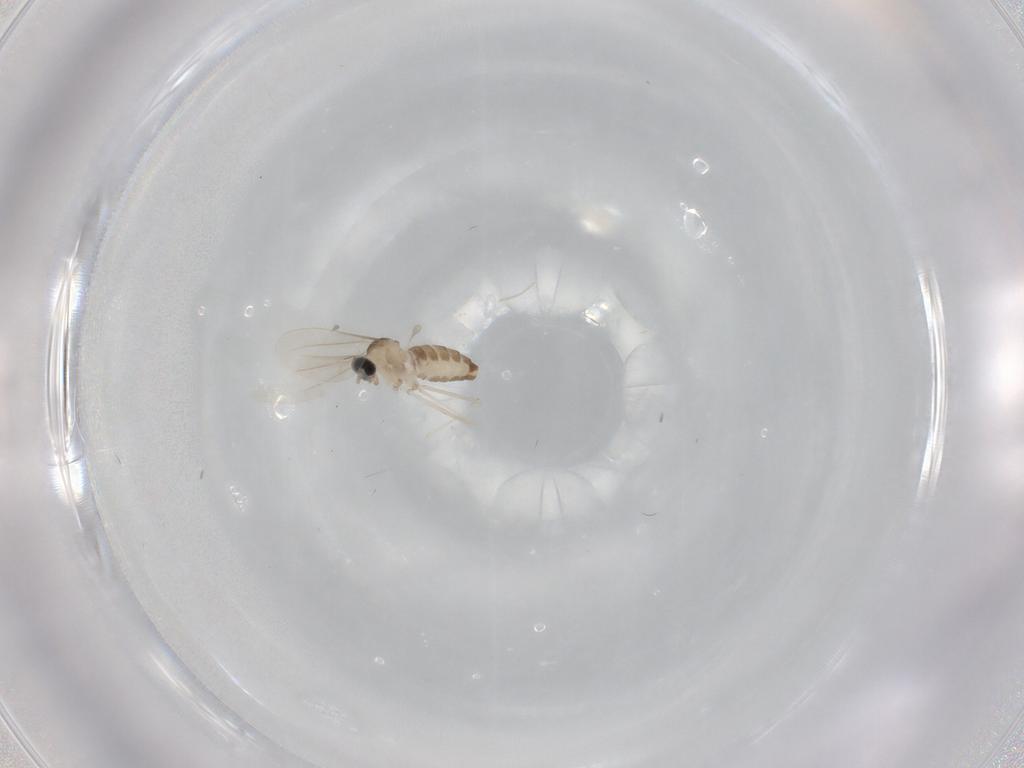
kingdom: Animalia
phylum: Arthropoda
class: Insecta
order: Diptera
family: Cecidomyiidae
